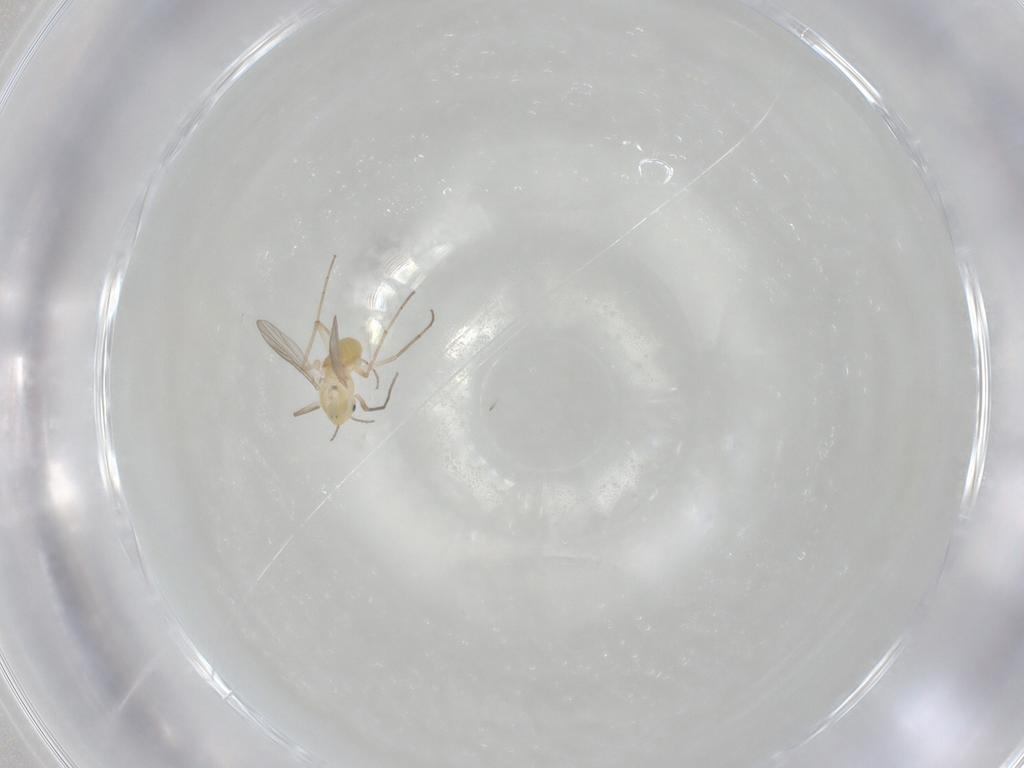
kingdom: Animalia
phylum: Arthropoda
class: Insecta
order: Diptera
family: Chironomidae
